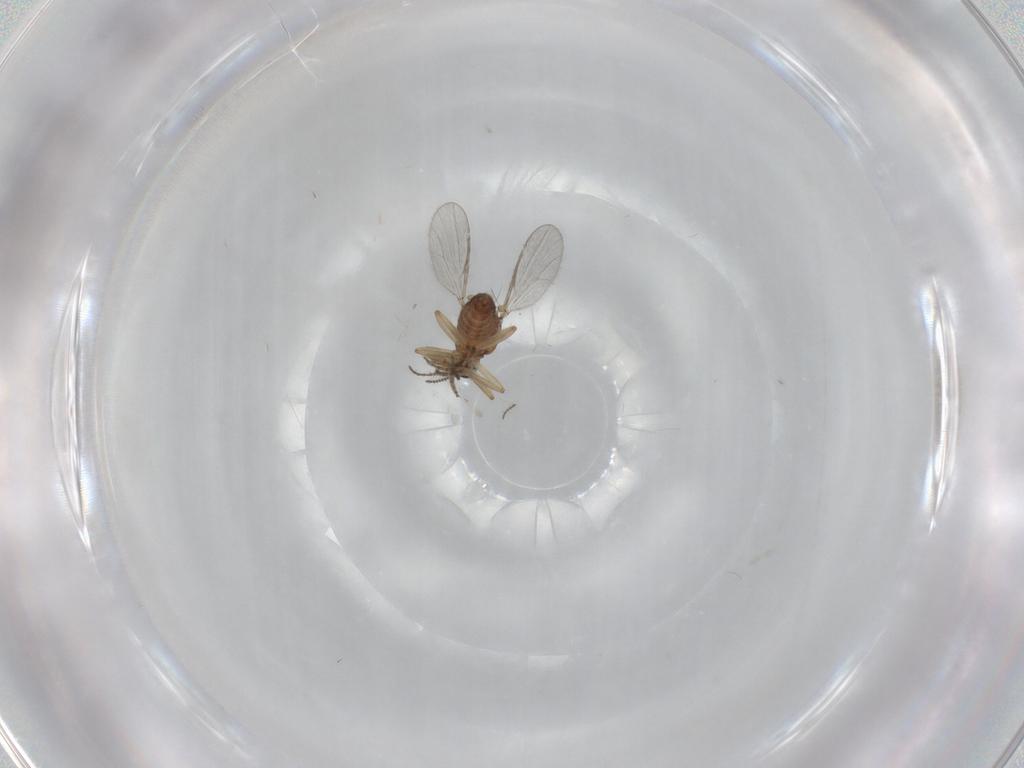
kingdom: Animalia
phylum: Arthropoda
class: Insecta
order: Diptera
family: Ceratopogonidae
